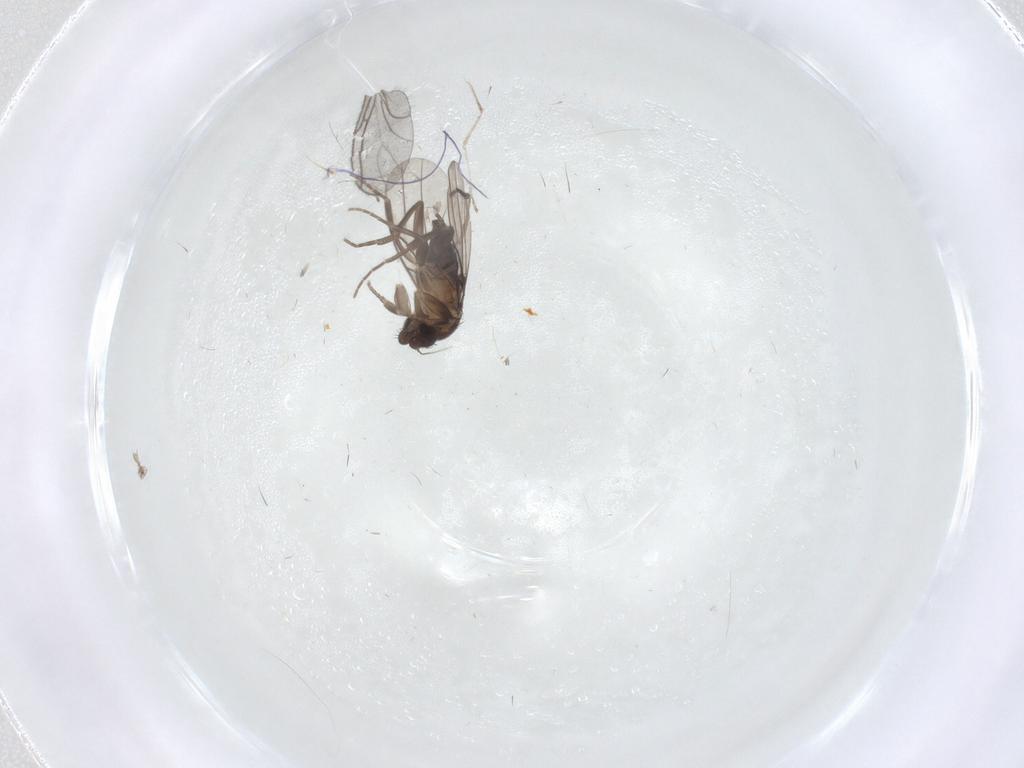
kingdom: Animalia
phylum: Arthropoda
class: Insecta
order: Diptera
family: Sciaridae
